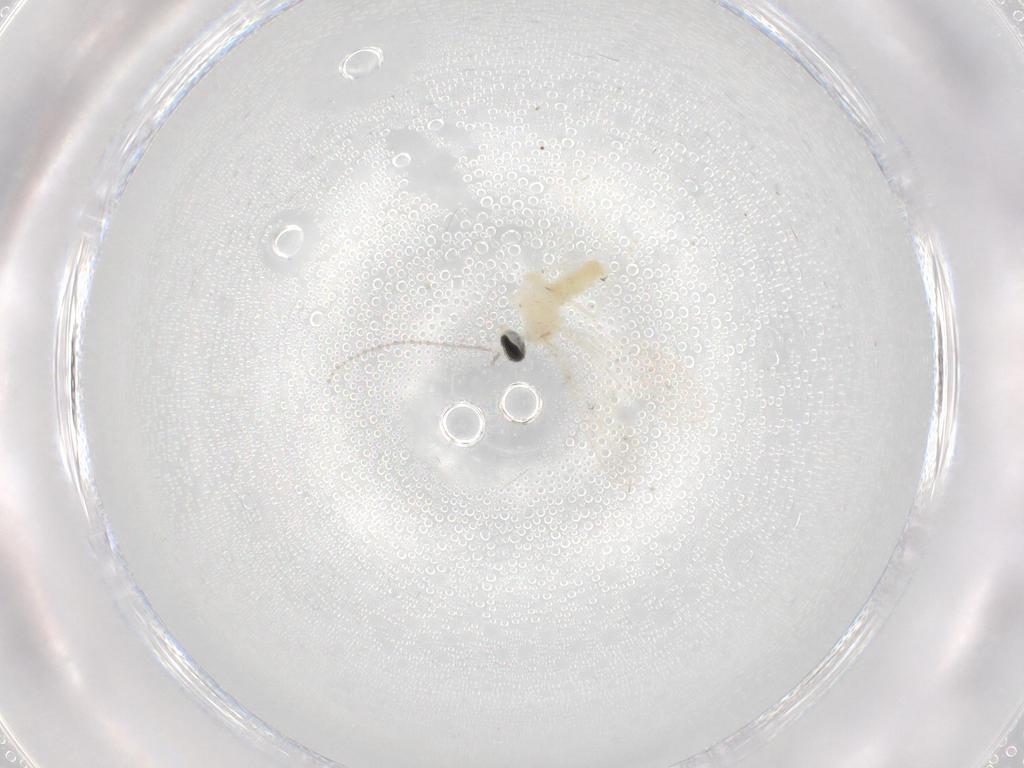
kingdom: Animalia
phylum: Arthropoda
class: Insecta
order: Diptera
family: Cecidomyiidae
